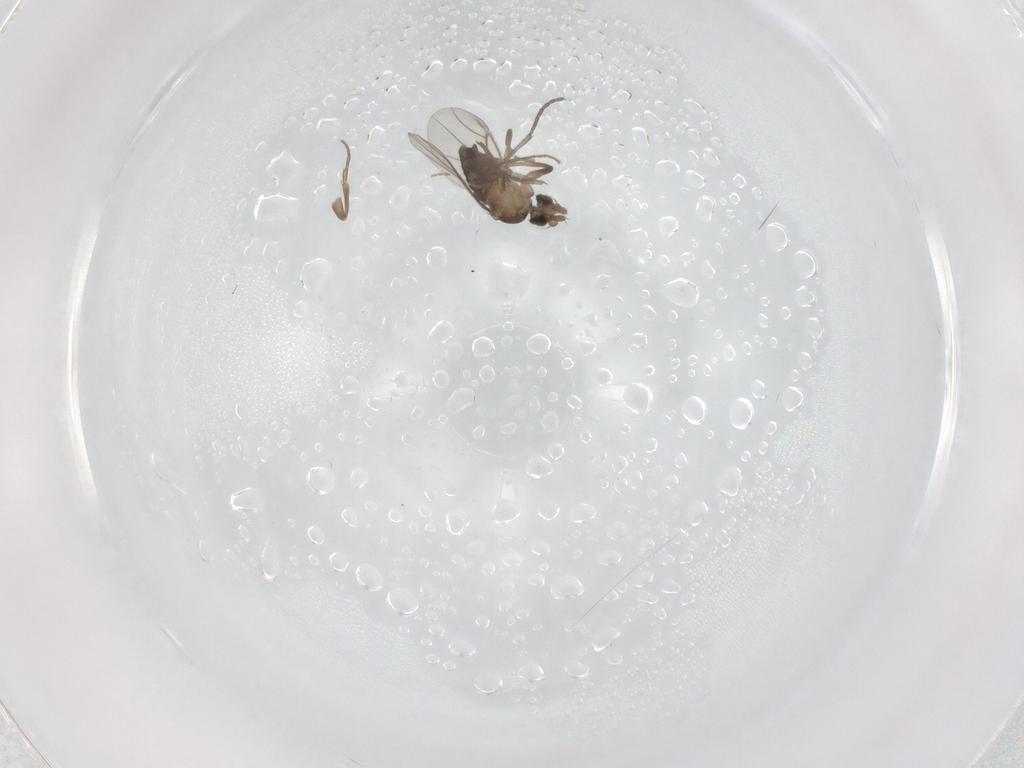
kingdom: Animalia
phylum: Arthropoda
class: Insecta
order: Diptera
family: Sciaridae
